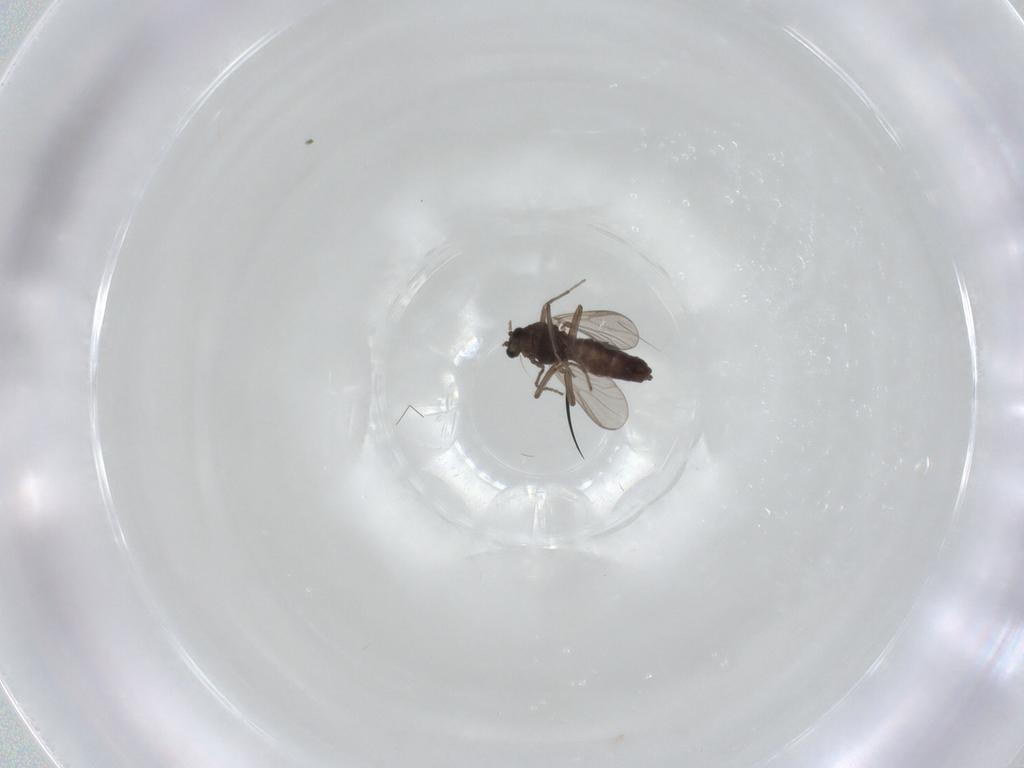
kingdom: Animalia
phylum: Arthropoda
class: Insecta
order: Diptera
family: Chironomidae
